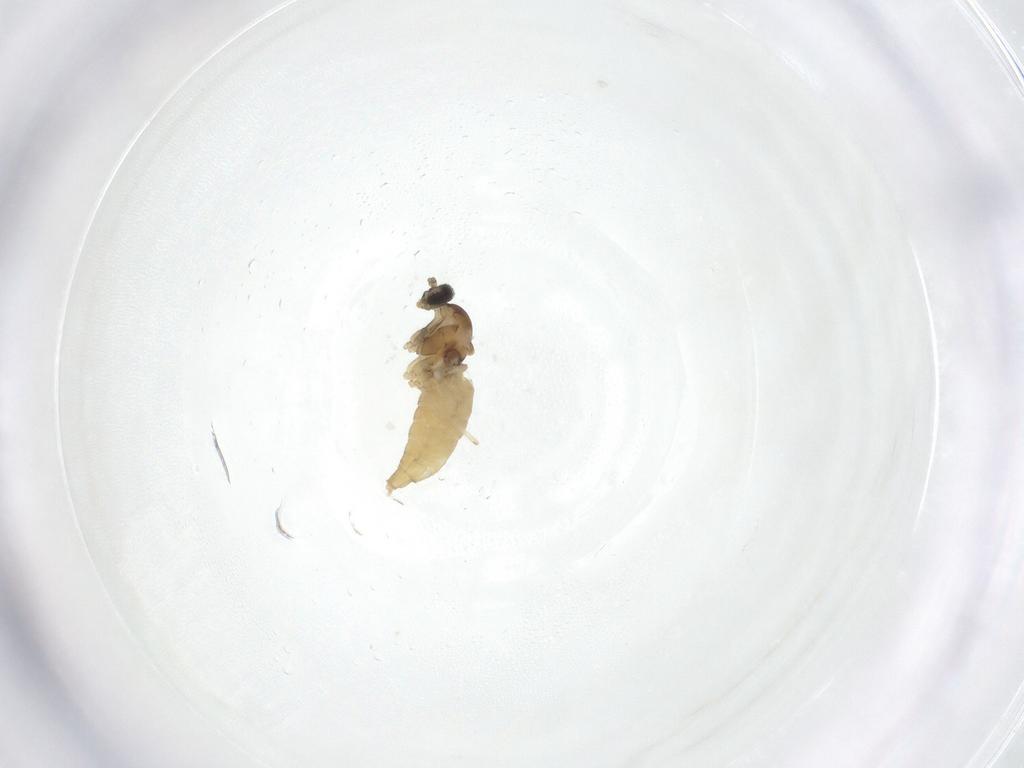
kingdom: Animalia
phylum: Arthropoda
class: Insecta
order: Diptera
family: Cecidomyiidae
